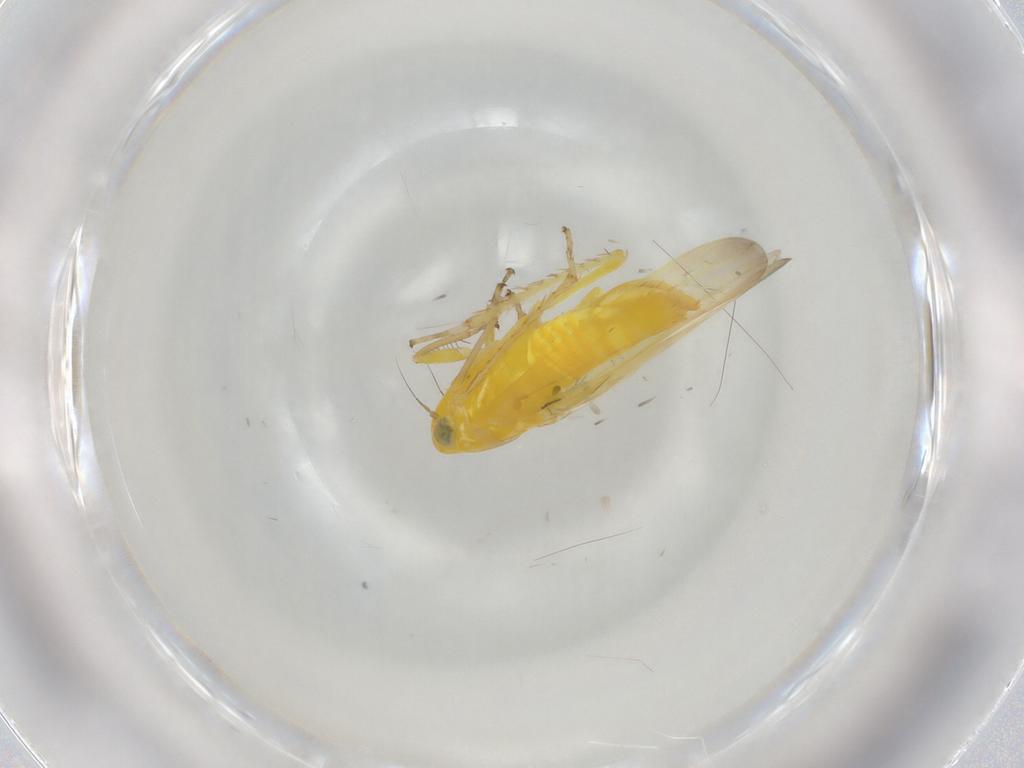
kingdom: Animalia
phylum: Arthropoda
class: Insecta
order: Hemiptera
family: Cicadellidae
